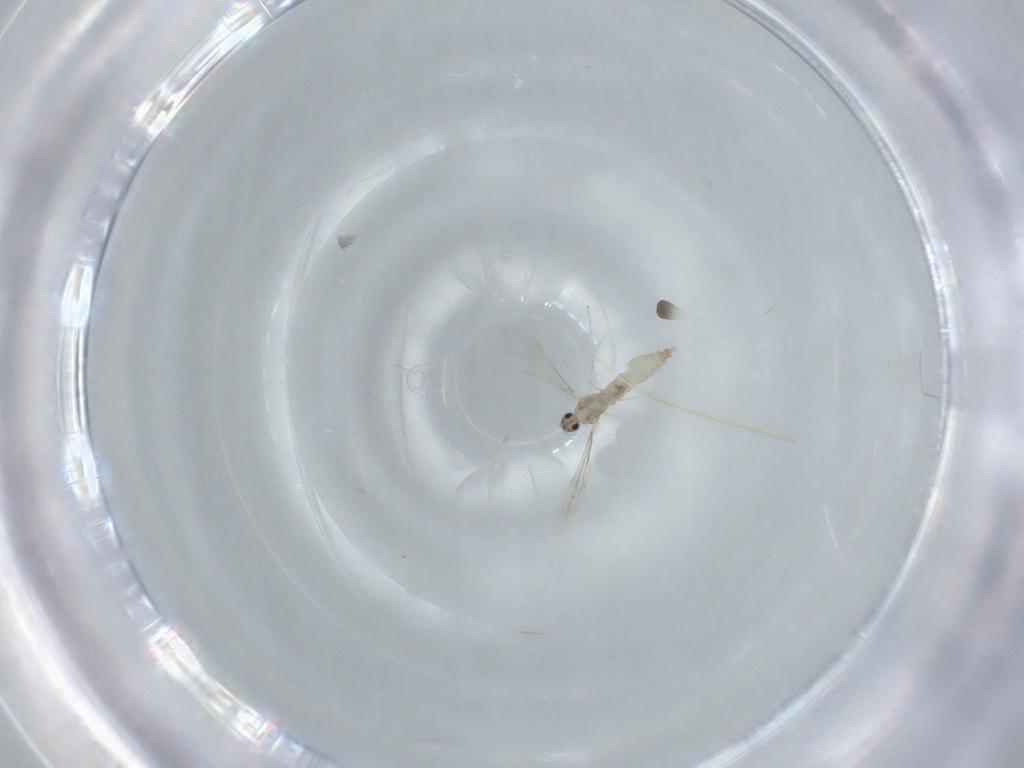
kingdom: Animalia
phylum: Arthropoda
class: Insecta
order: Diptera
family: Cecidomyiidae
